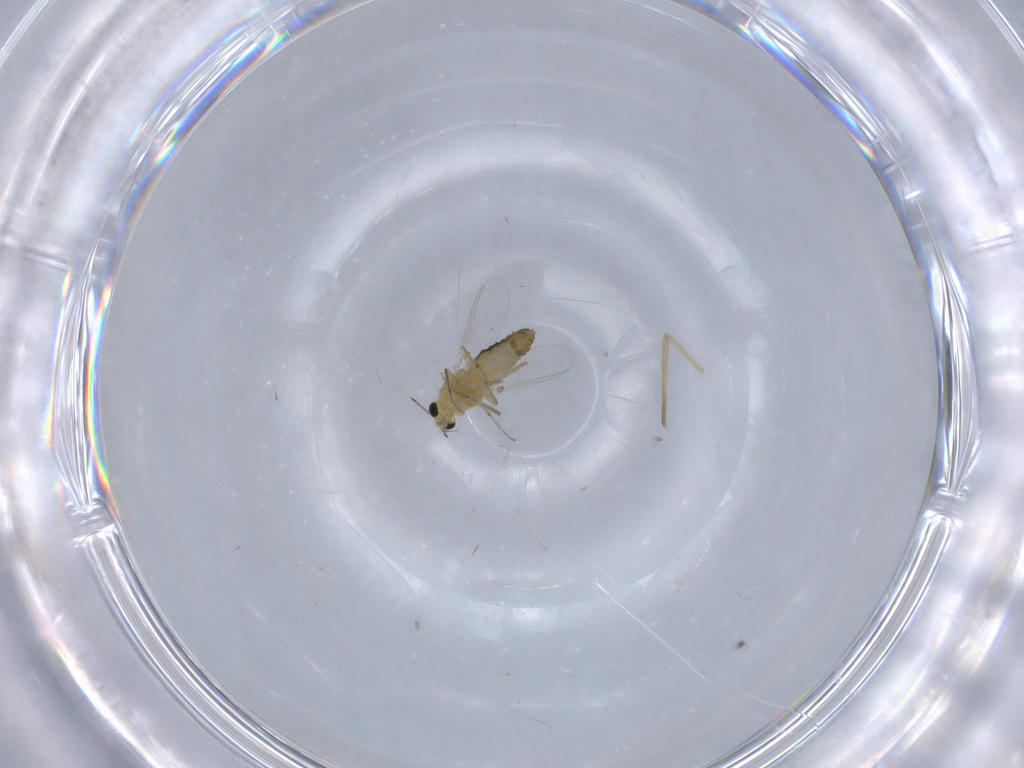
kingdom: Animalia
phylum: Arthropoda
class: Insecta
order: Diptera
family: Chironomidae
